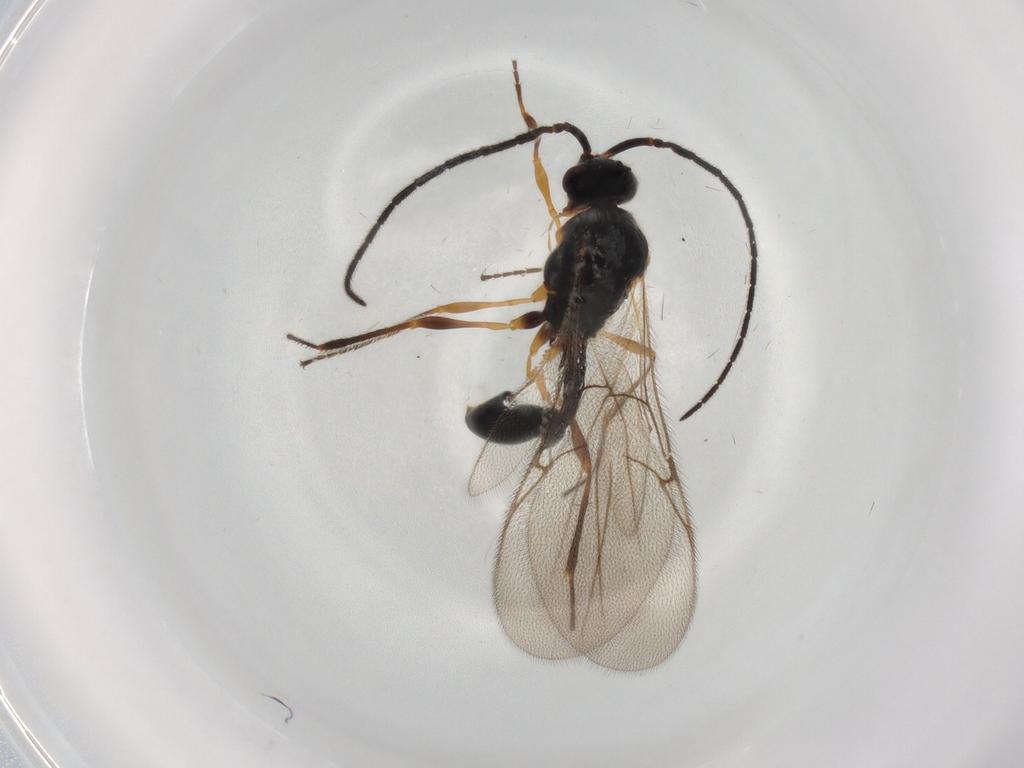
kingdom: Animalia
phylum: Arthropoda
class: Insecta
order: Hymenoptera
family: Diapriidae
